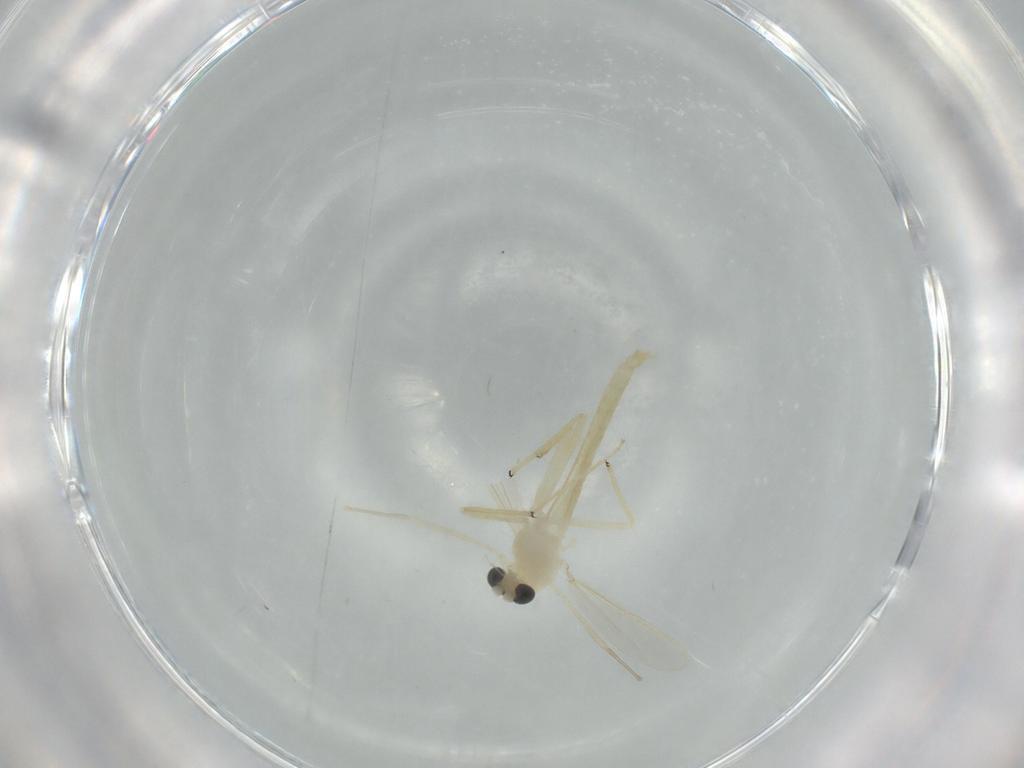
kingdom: Animalia
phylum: Arthropoda
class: Insecta
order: Diptera
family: Chironomidae
